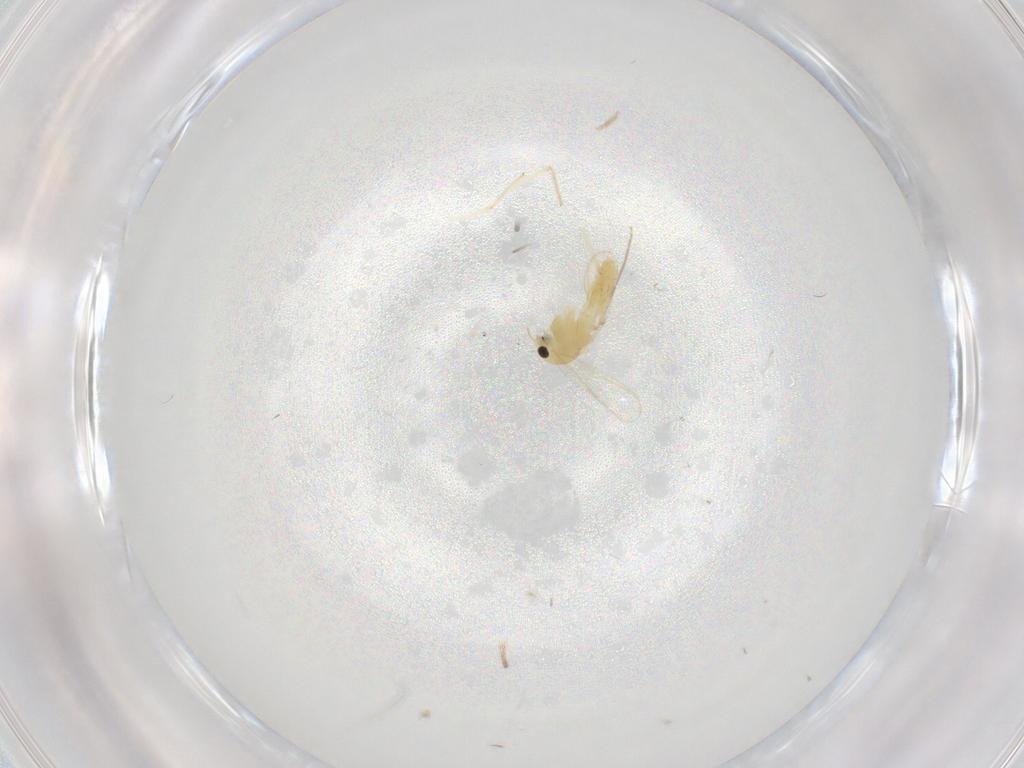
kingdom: Animalia
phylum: Arthropoda
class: Insecta
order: Diptera
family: Chironomidae
